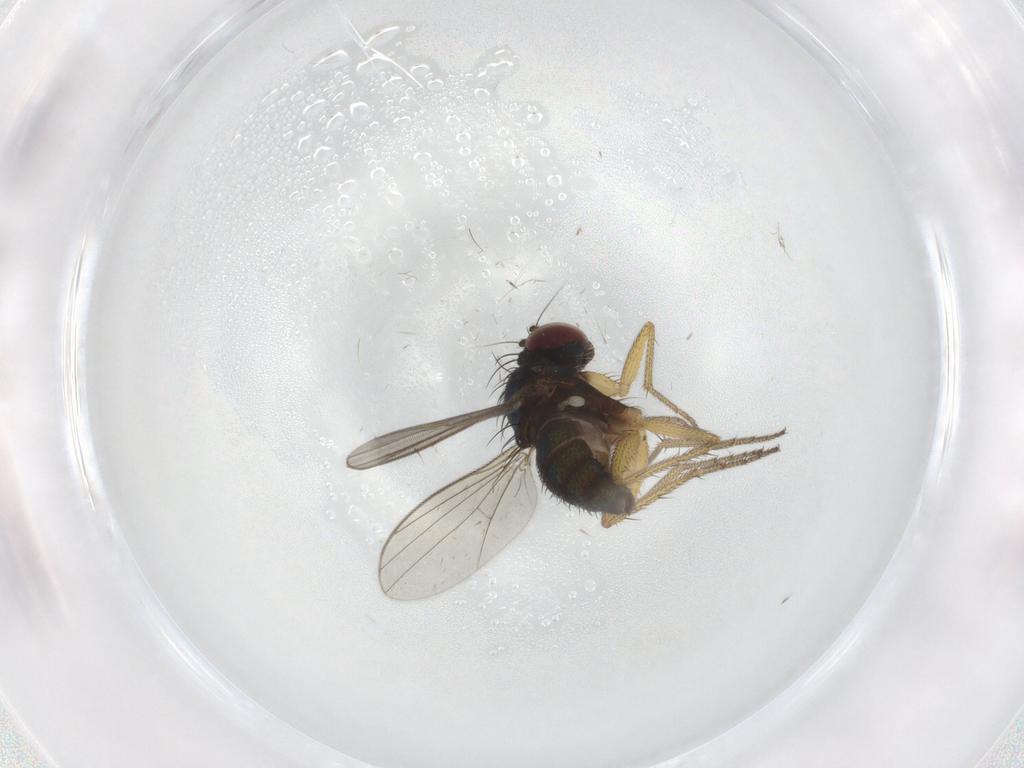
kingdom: Animalia
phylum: Arthropoda
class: Insecta
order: Diptera
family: Dolichopodidae
